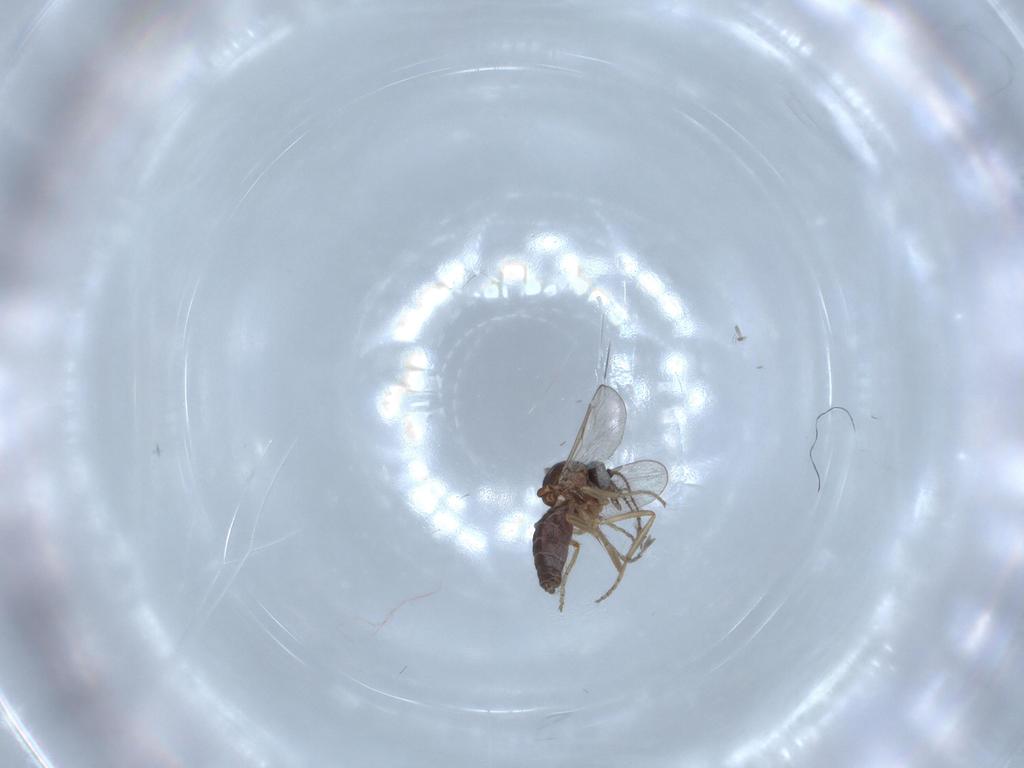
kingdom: Animalia
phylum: Arthropoda
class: Insecta
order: Diptera
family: Ceratopogonidae
